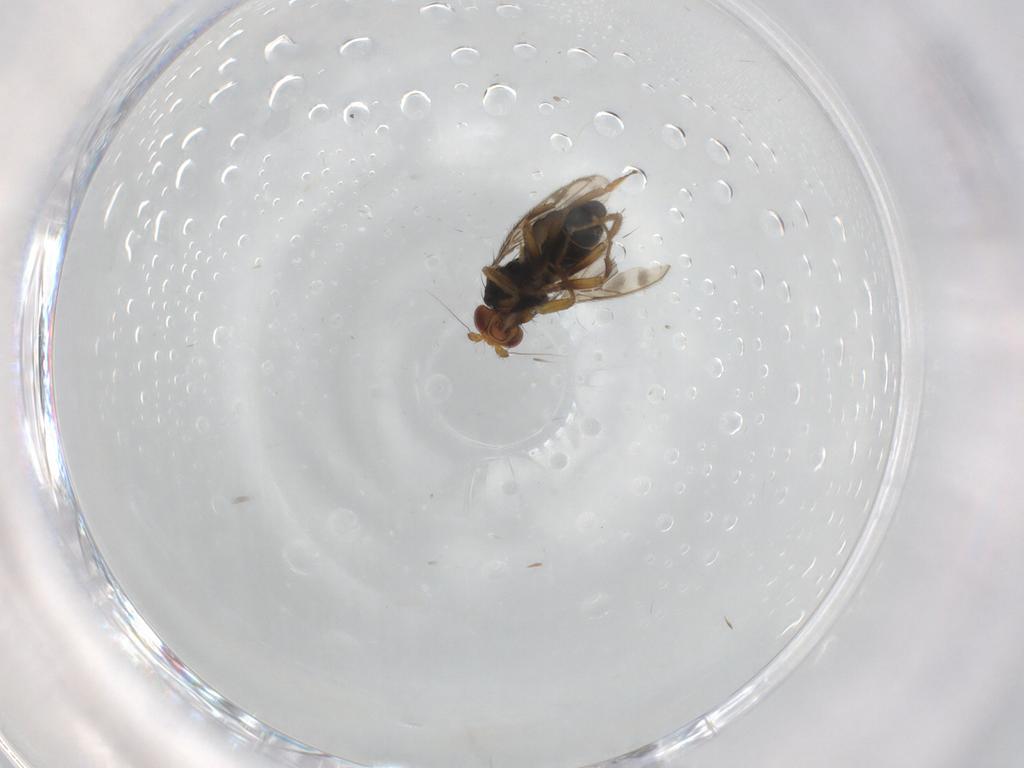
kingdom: Animalia
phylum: Arthropoda
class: Insecta
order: Diptera
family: Sphaeroceridae
